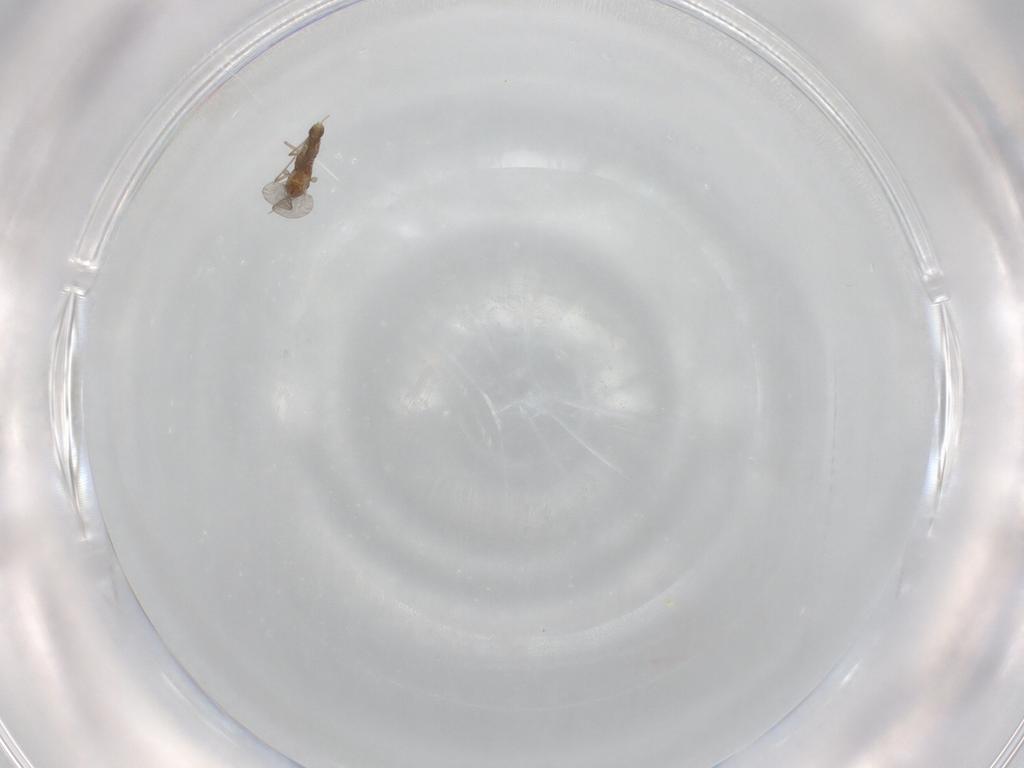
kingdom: Animalia
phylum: Arthropoda
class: Insecta
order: Diptera
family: Chironomidae
